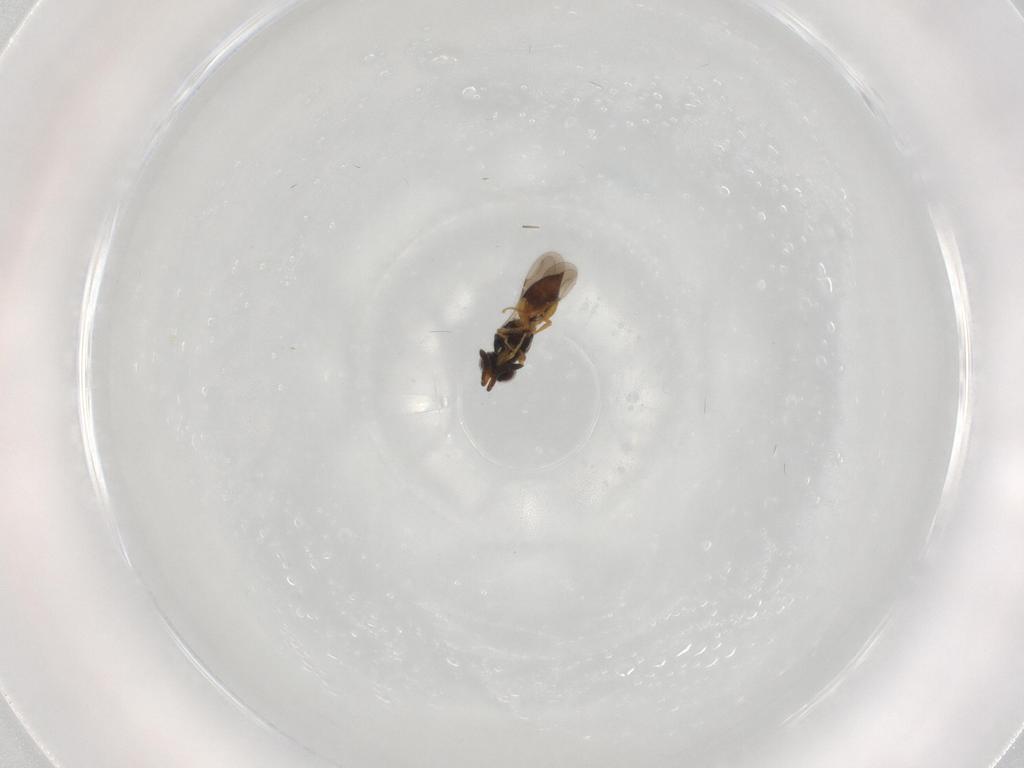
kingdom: Animalia
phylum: Arthropoda
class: Insecta
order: Hymenoptera
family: Ceraphronidae
